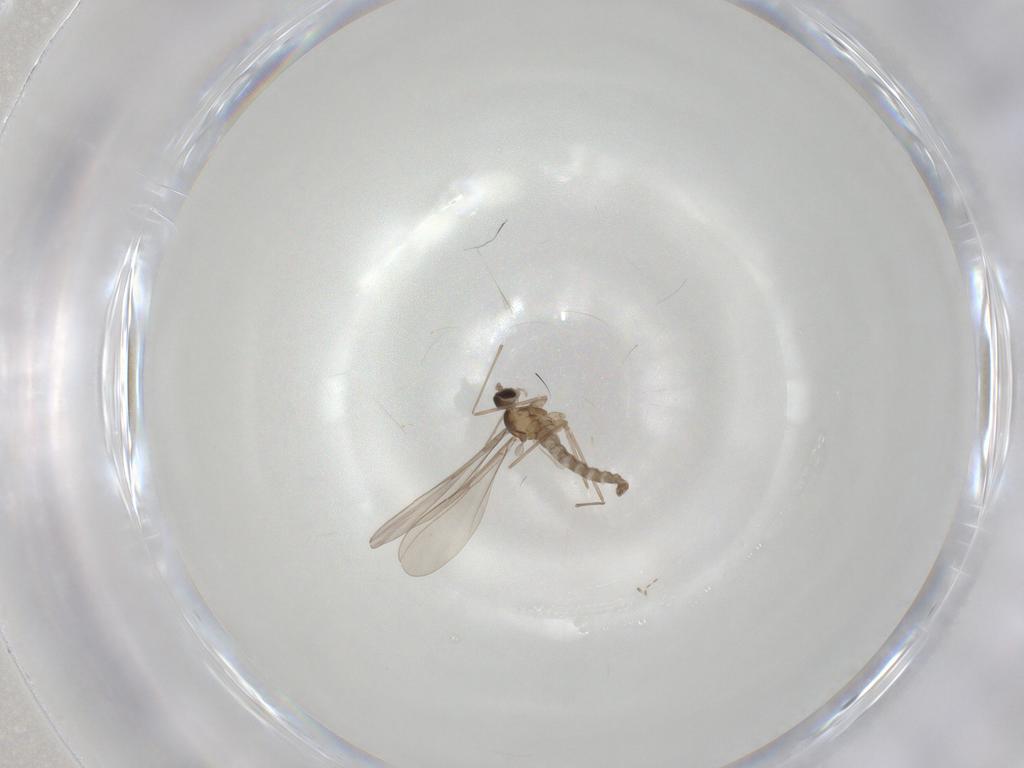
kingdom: Animalia
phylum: Arthropoda
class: Insecta
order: Diptera
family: Cecidomyiidae
